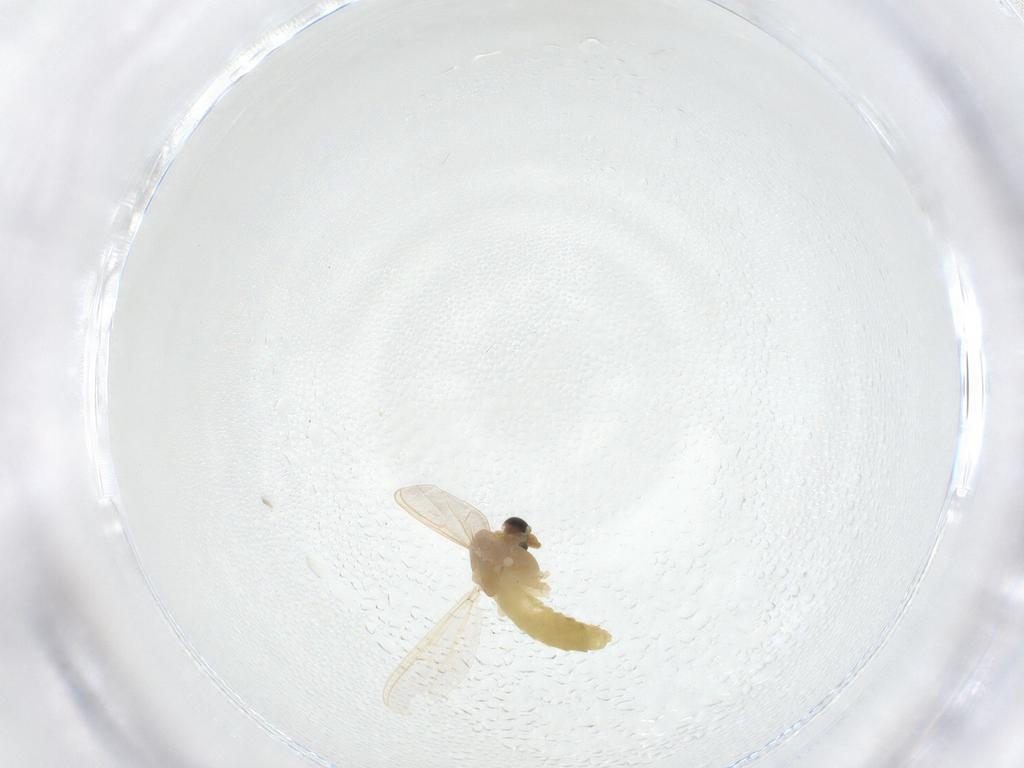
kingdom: Animalia
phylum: Arthropoda
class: Insecta
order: Diptera
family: Chironomidae
